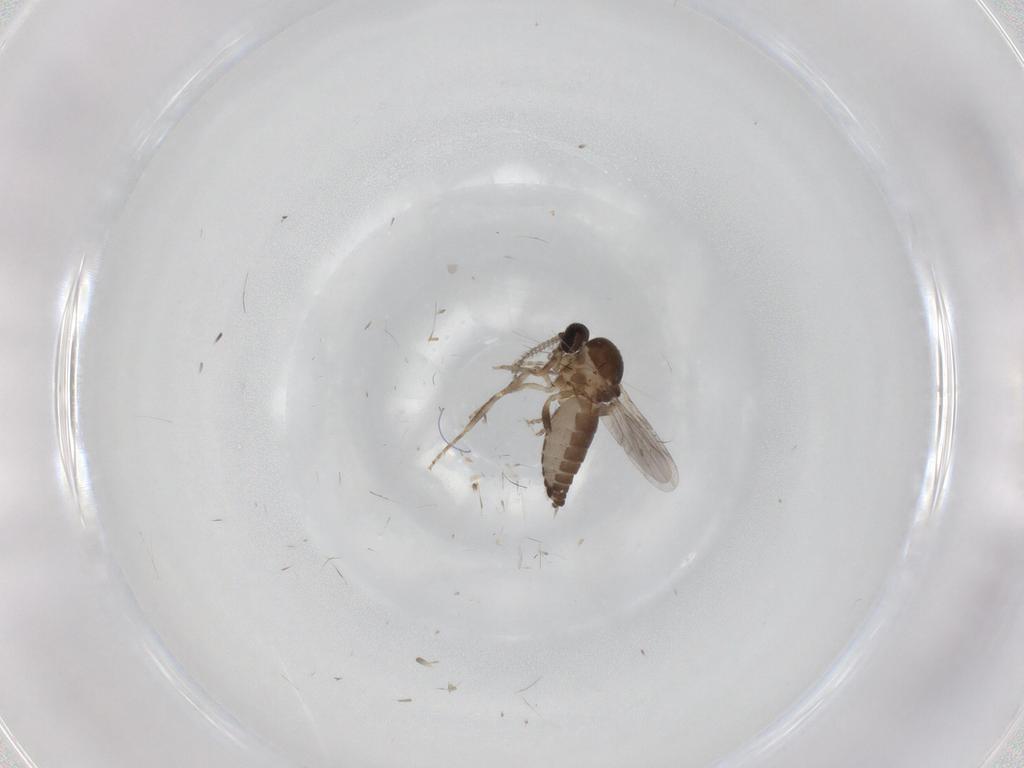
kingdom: Animalia
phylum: Arthropoda
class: Insecta
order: Diptera
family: Ceratopogonidae
